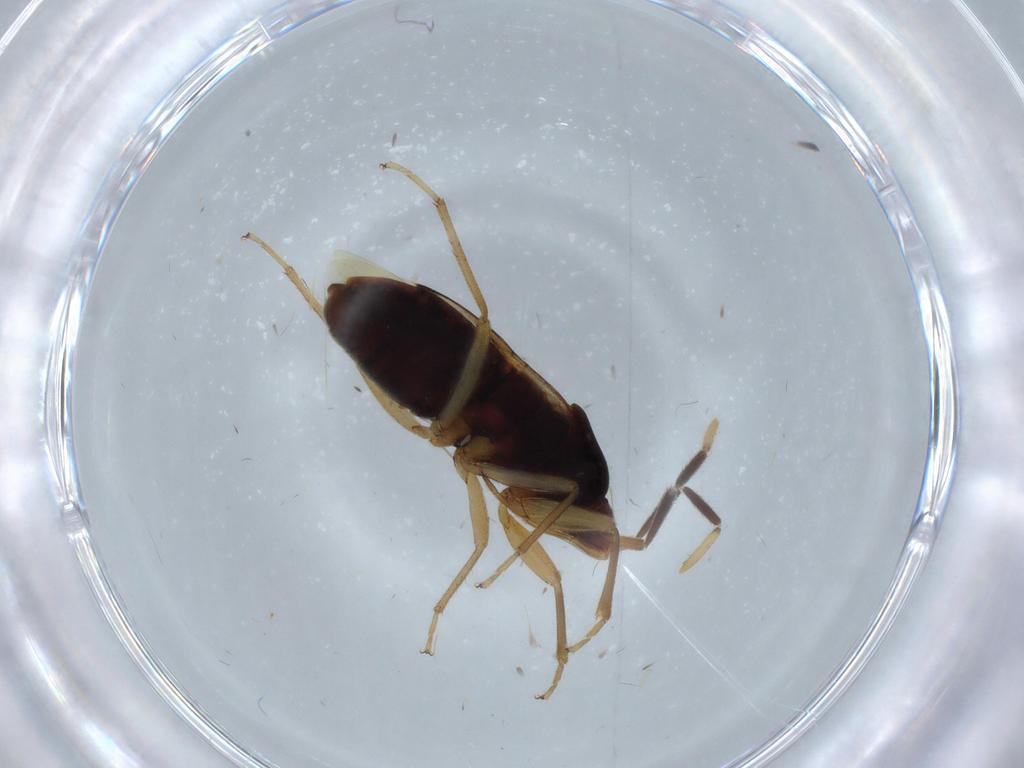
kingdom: Animalia
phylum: Arthropoda
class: Insecta
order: Hemiptera
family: Rhyparochromidae
